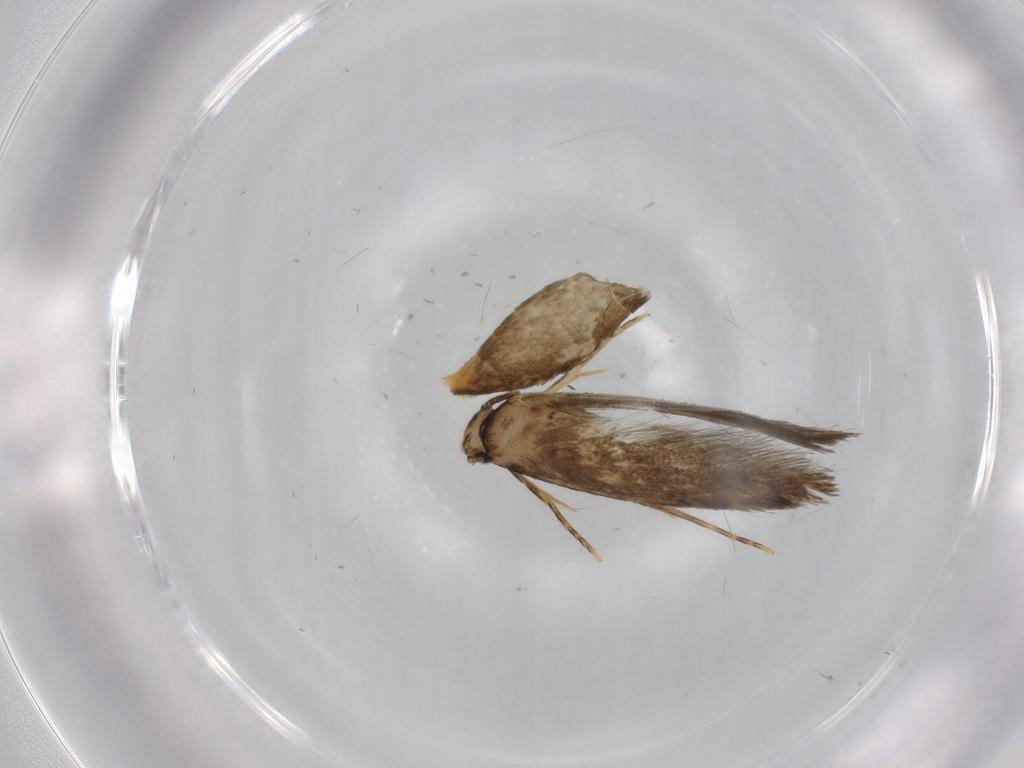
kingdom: Animalia
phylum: Arthropoda
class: Insecta
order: Lepidoptera
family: Tineidae
